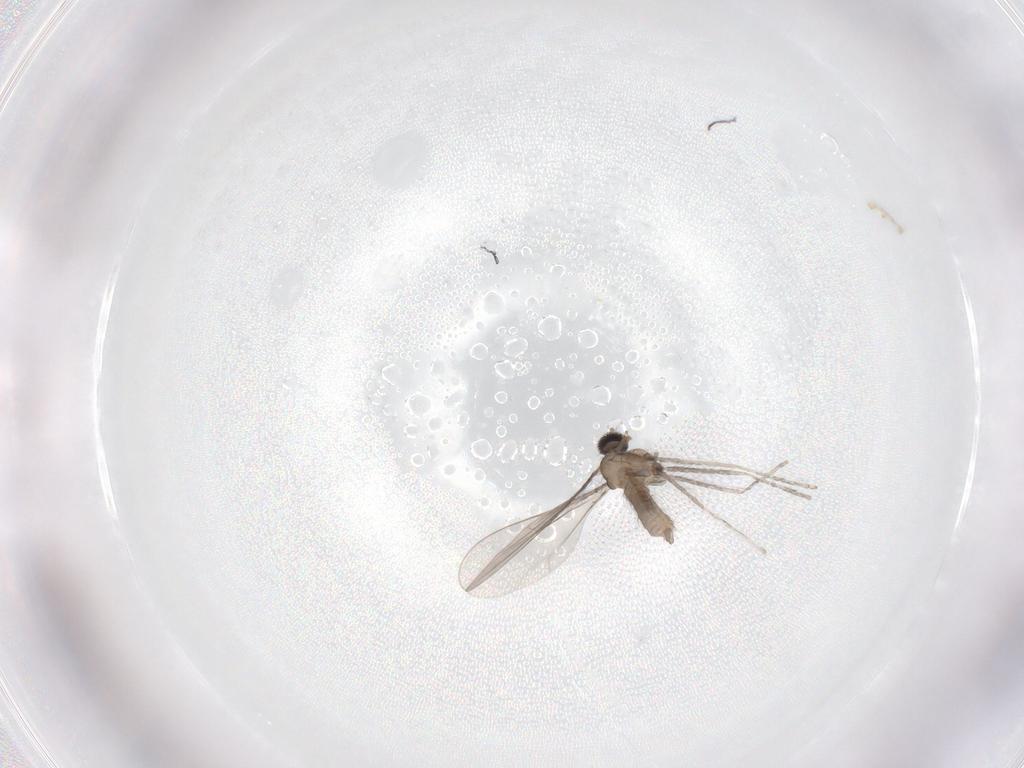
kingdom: Animalia
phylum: Arthropoda
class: Insecta
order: Diptera
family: Cecidomyiidae
